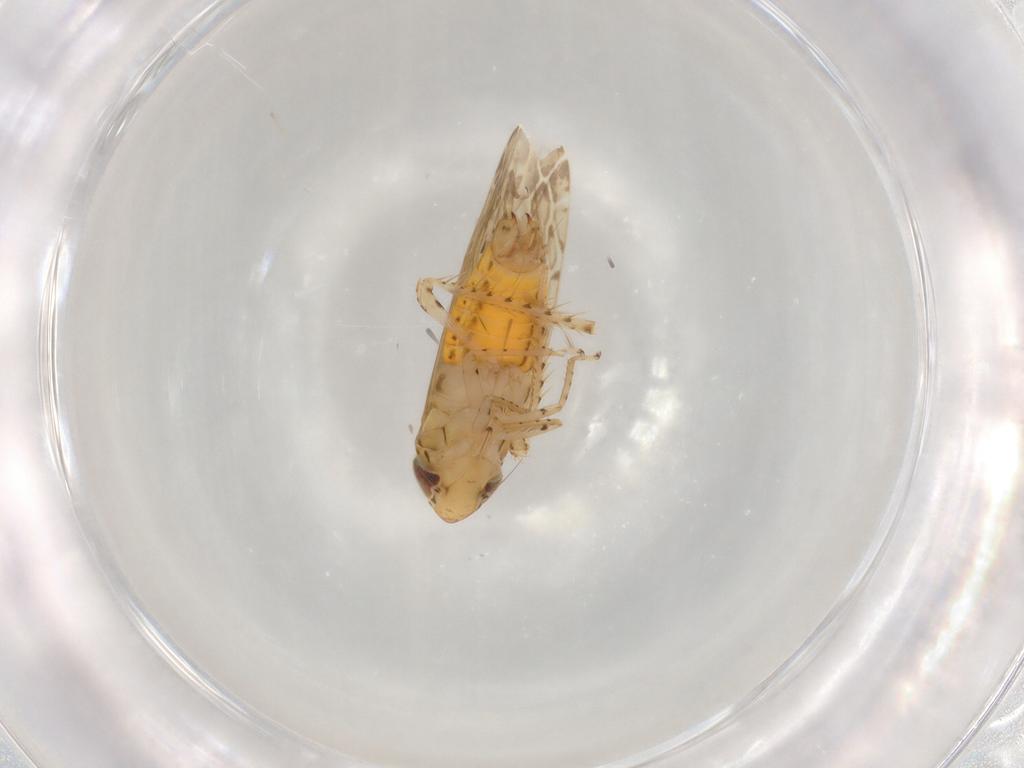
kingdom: Animalia
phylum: Arthropoda
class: Insecta
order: Hemiptera
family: Cicadellidae
